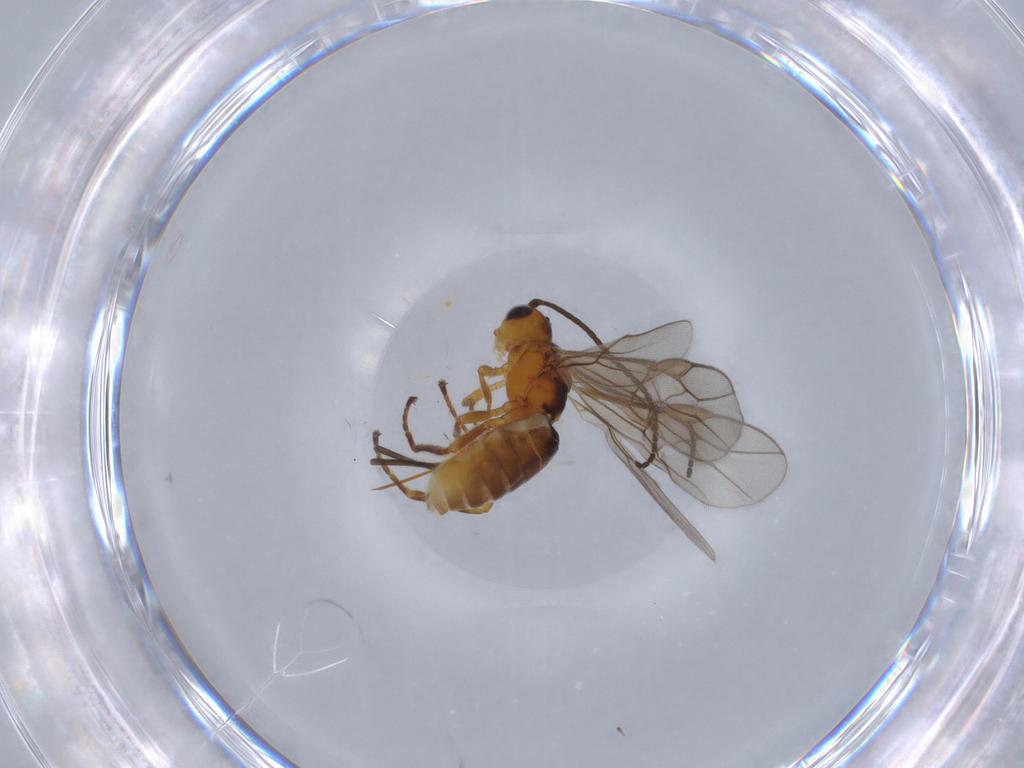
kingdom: Animalia
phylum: Arthropoda
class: Insecta
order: Hymenoptera
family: Braconidae
